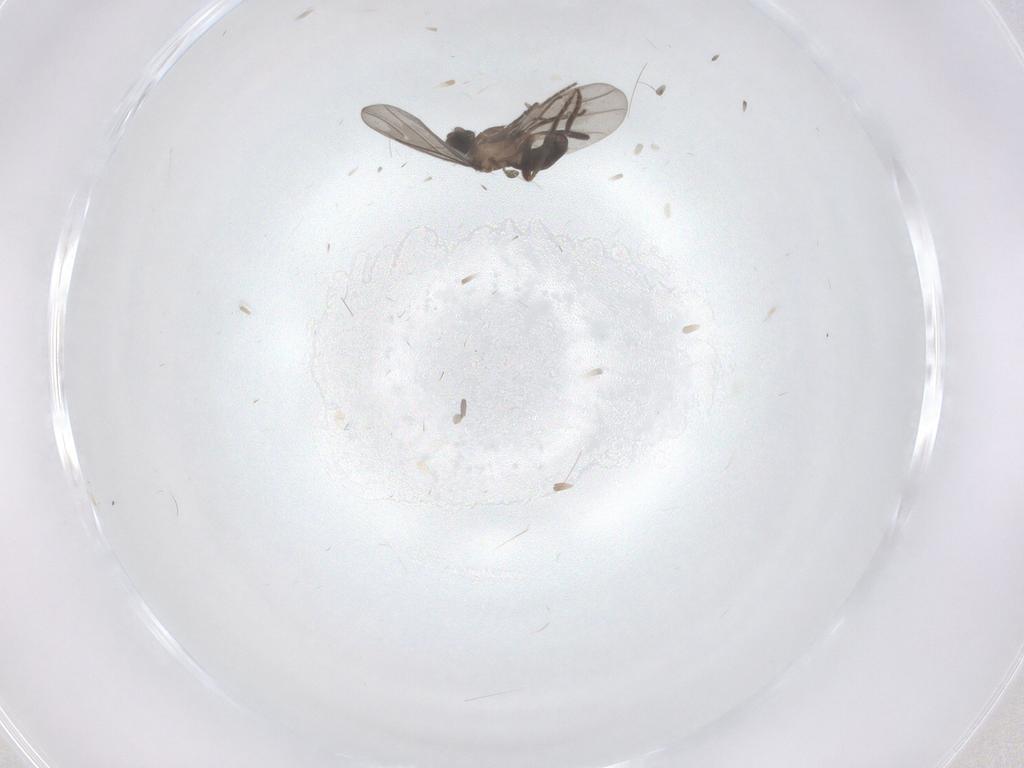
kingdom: Animalia
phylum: Arthropoda
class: Insecta
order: Diptera
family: Phoridae
